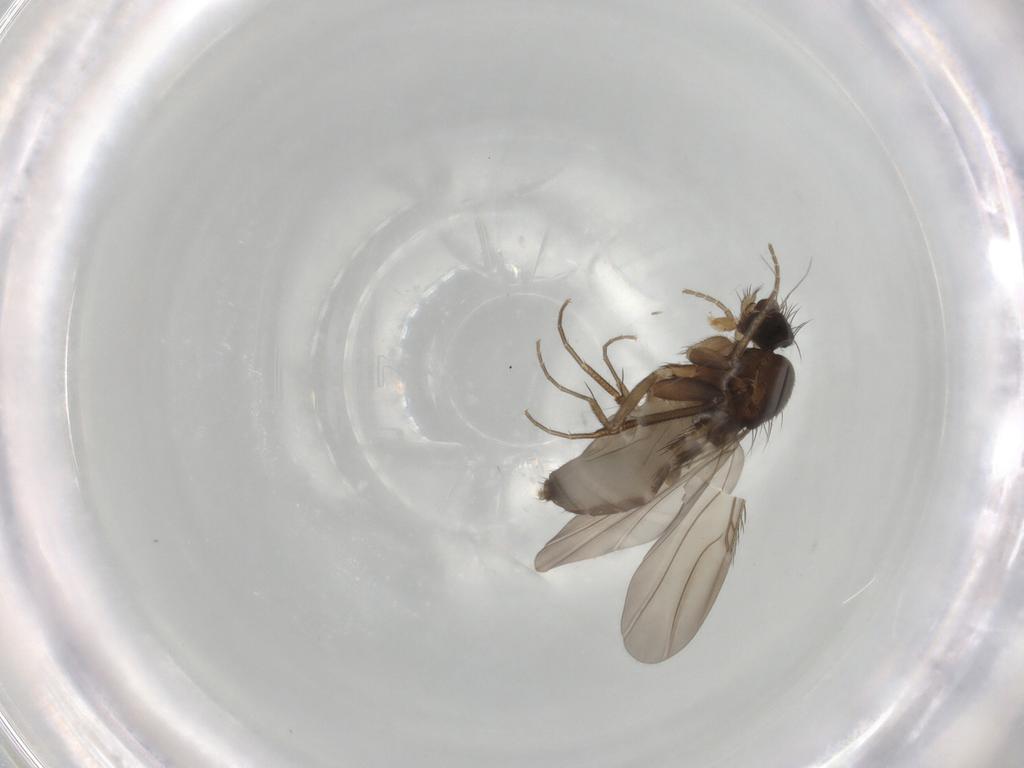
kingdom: Animalia
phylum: Arthropoda
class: Insecta
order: Diptera
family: Phoridae
